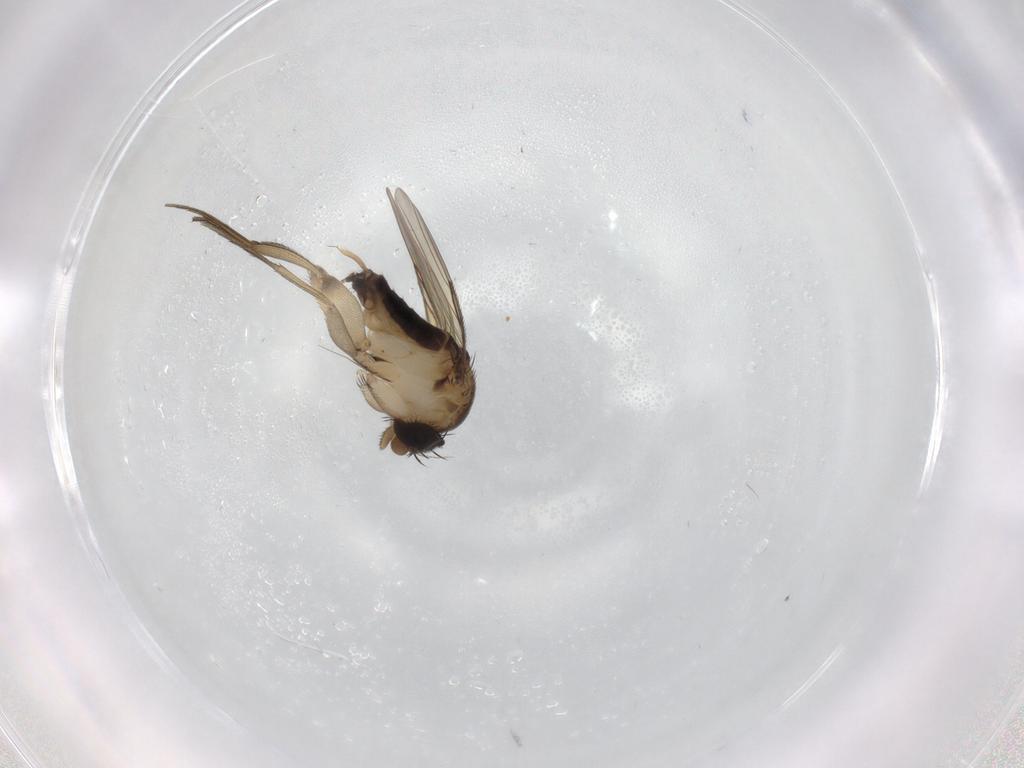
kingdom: Animalia
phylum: Arthropoda
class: Insecta
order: Diptera
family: Phoridae
